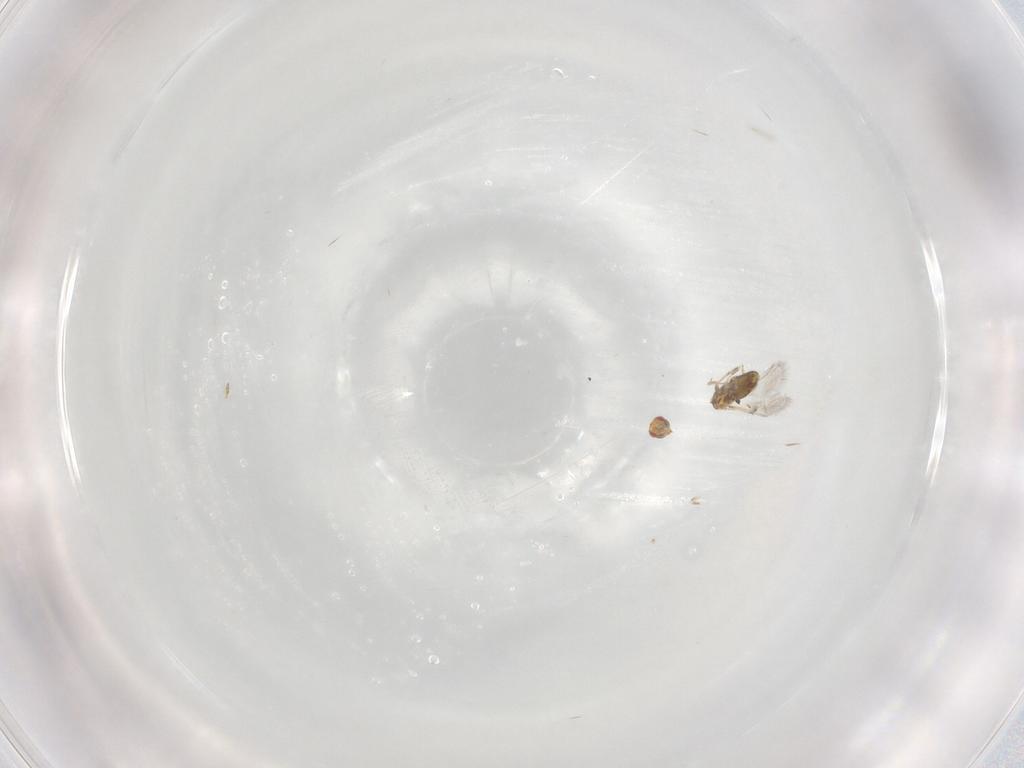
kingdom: Animalia
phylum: Arthropoda
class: Insecta
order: Hymenoptera
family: Trichogrammatidae
